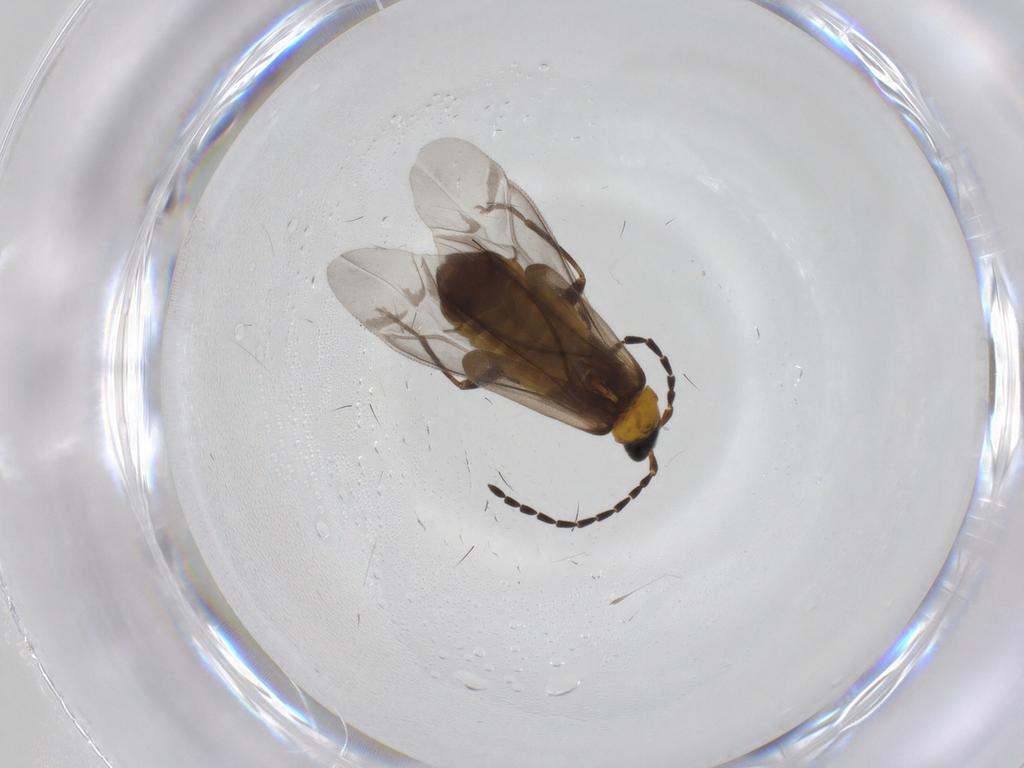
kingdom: Animalia
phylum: Arthropoda
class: Insecta
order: Coleoptera
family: Cantharidae
